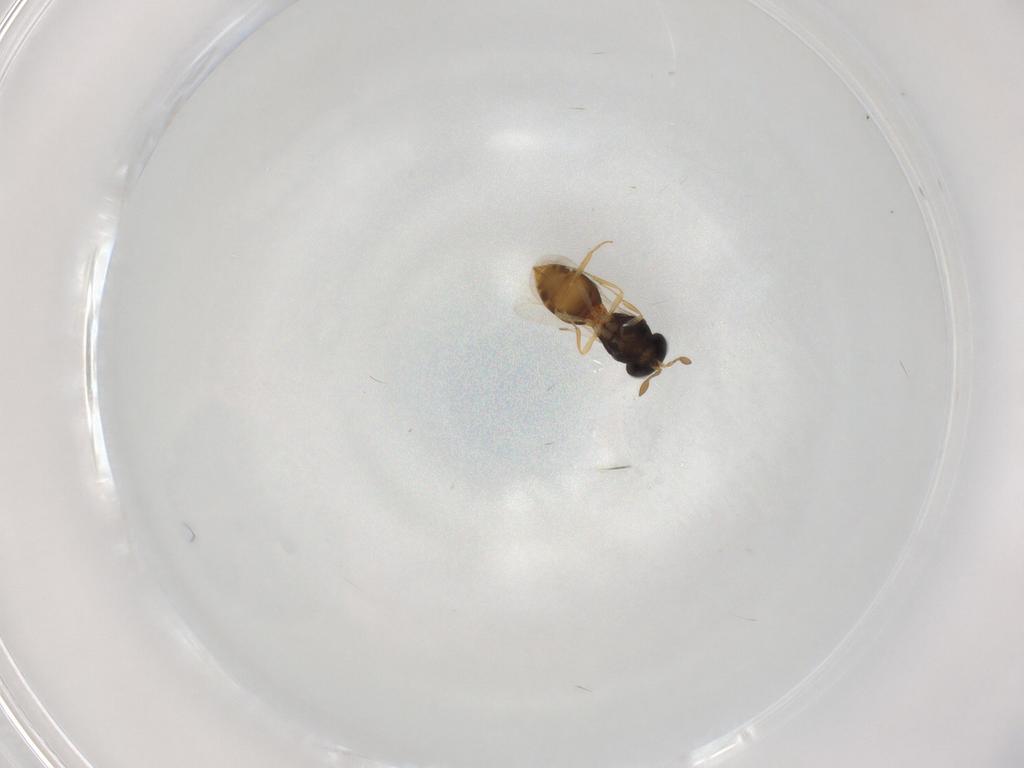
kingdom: Animalia
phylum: Arthropoda
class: Insecta
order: Hymenoptera
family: Scelionidae
